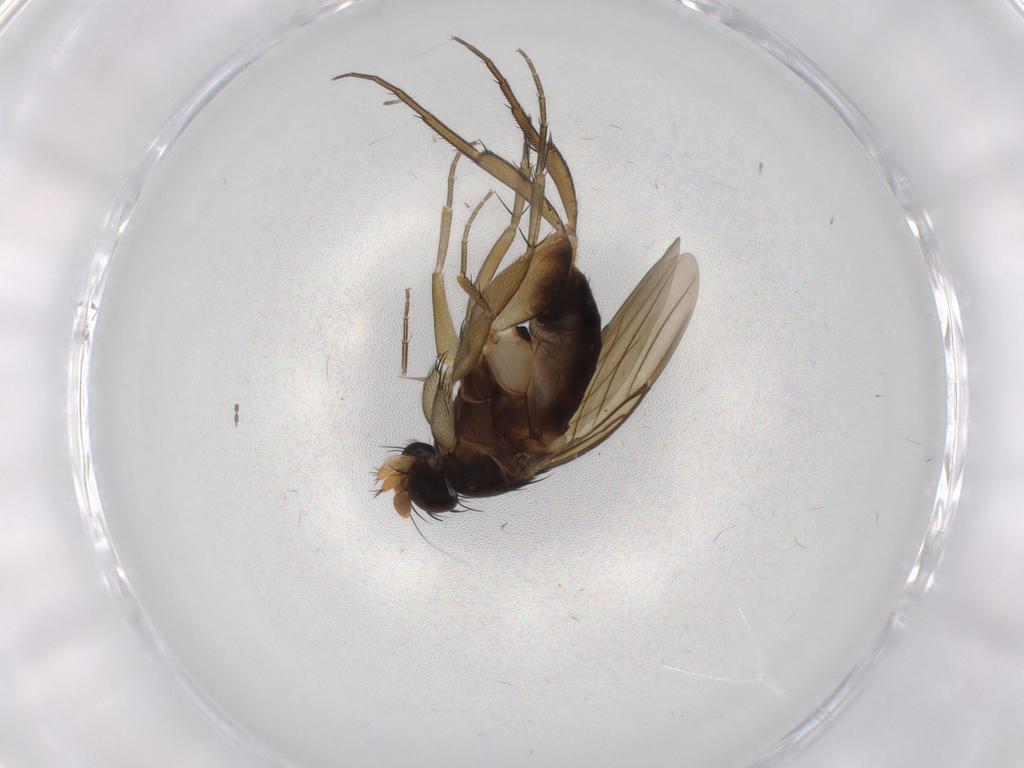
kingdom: Animalia
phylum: Arthropoda
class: Insecta
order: Diptera
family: Phoridae
